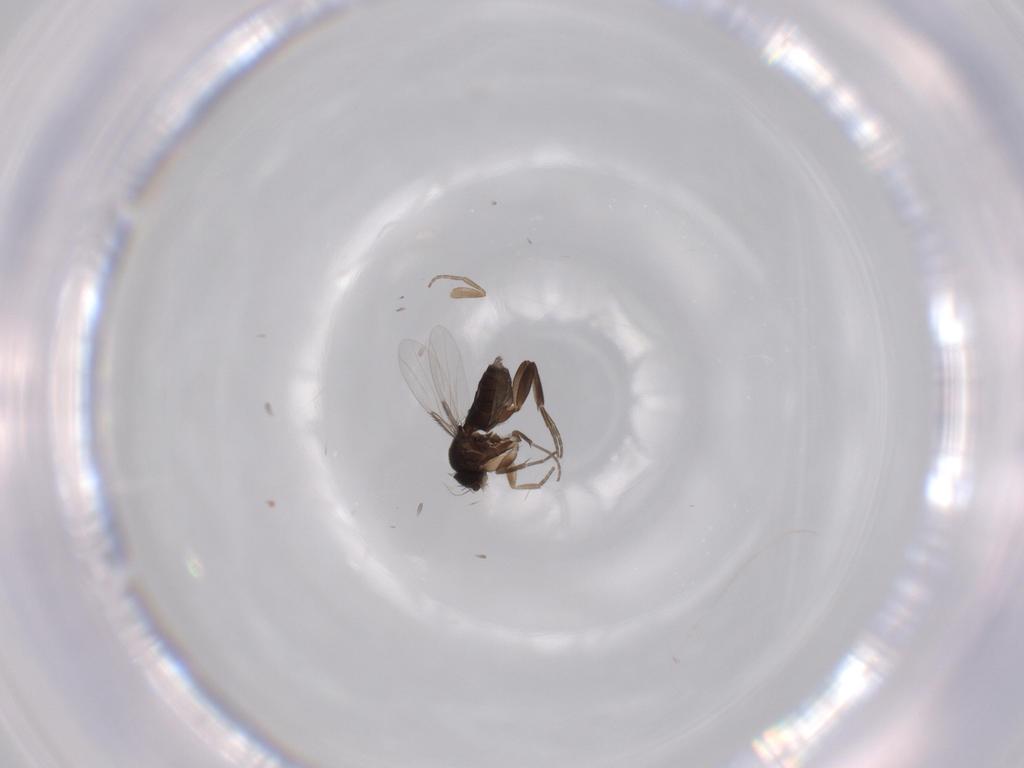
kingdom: Animalia
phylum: Arthropoda
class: Insecta
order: Diptera
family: Phoridae
